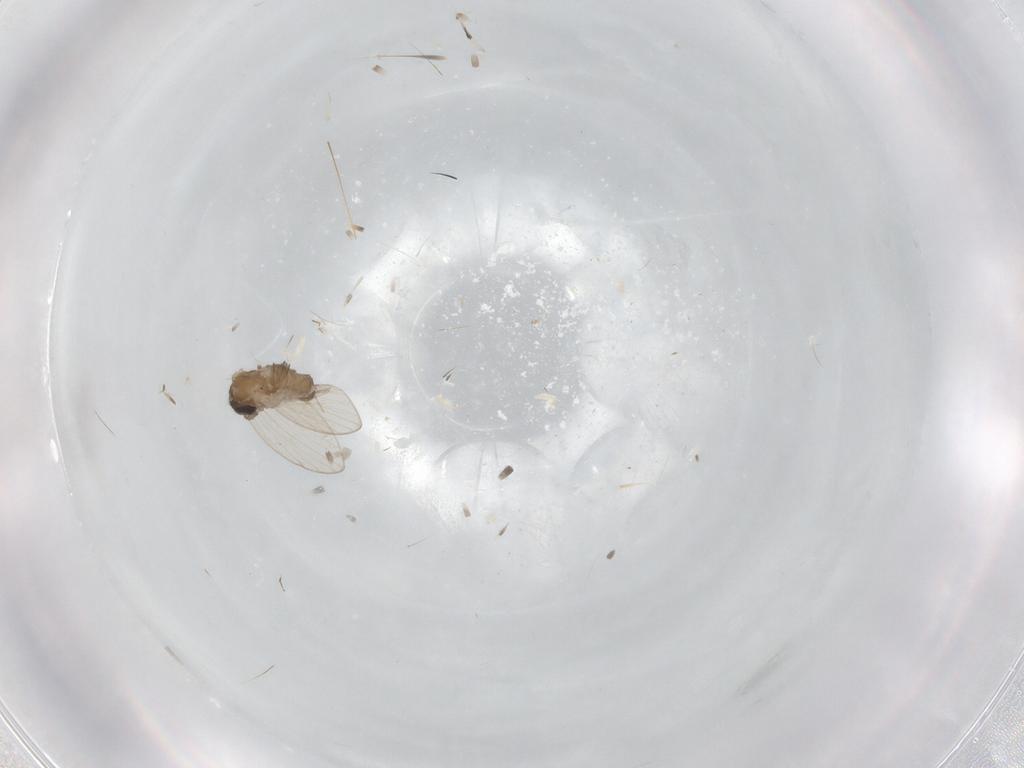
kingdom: Animalia
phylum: Arthropoda
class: Insecta
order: Diptera
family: Psychodidae
